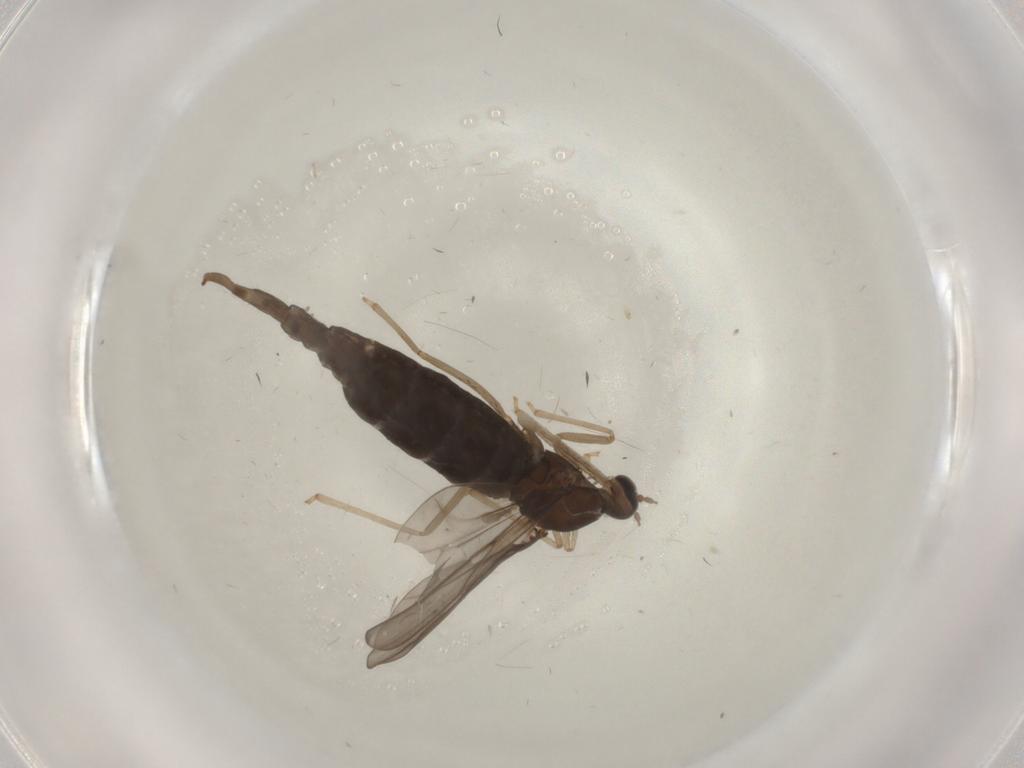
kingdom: Animalia
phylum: Arthropoda
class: Insecta
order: Diptera
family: Cecidomyiidae
